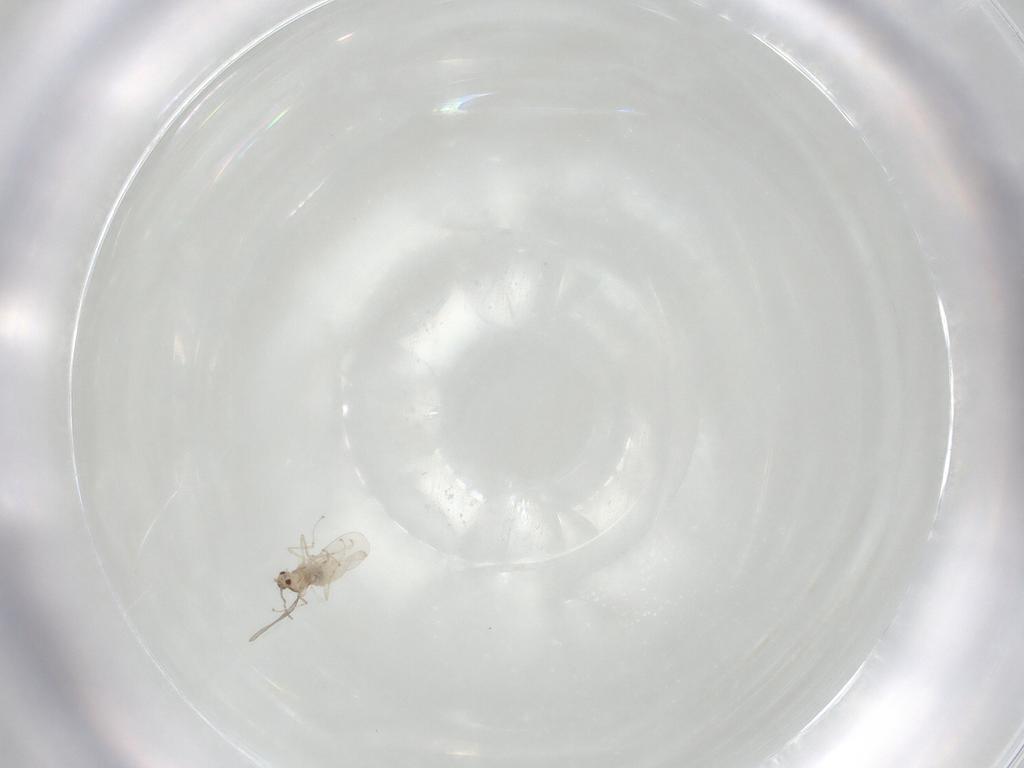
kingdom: Animalia
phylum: Arthropoda
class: Insecta
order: Diptera
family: Cecidomyiidae
